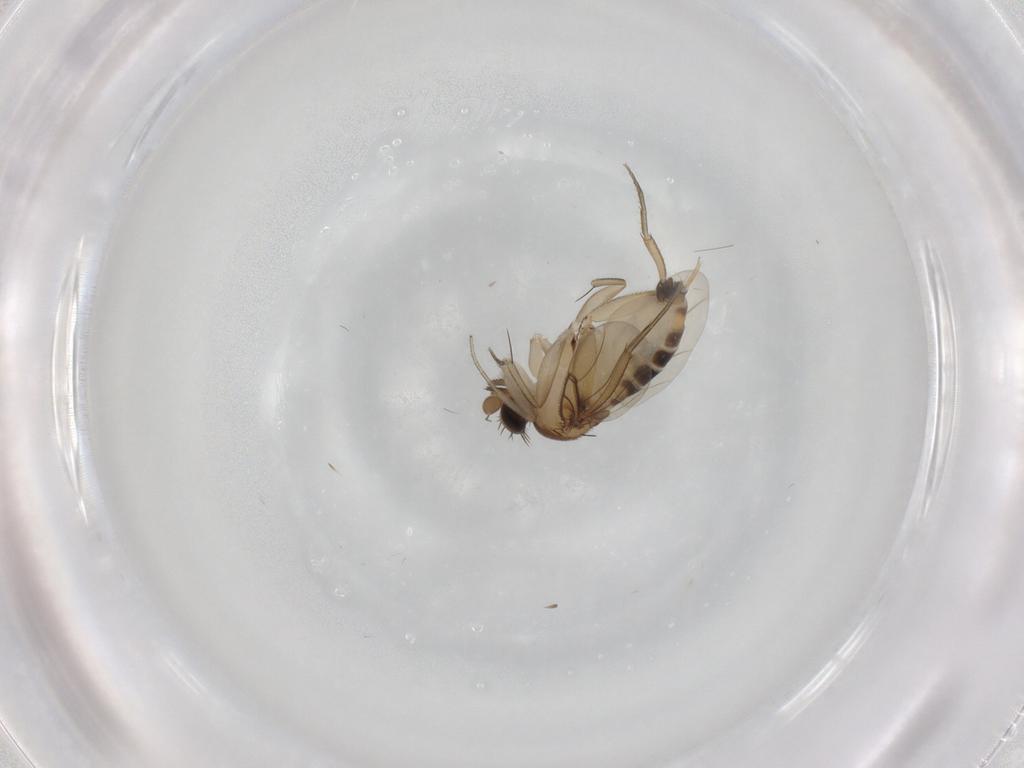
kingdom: Animalia
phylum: Arthropoda
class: Insecta
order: Diptera
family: Phoridae
